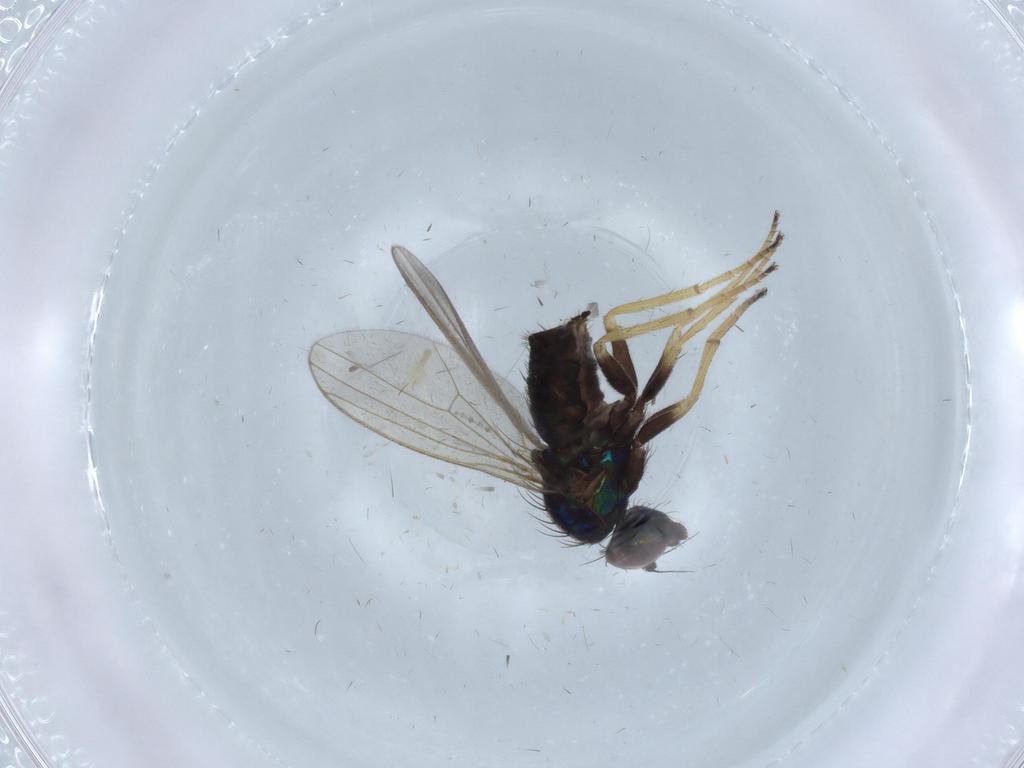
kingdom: Animalia
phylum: Arthropoda
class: Insecta
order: Diptera
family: Dolichopodidae
